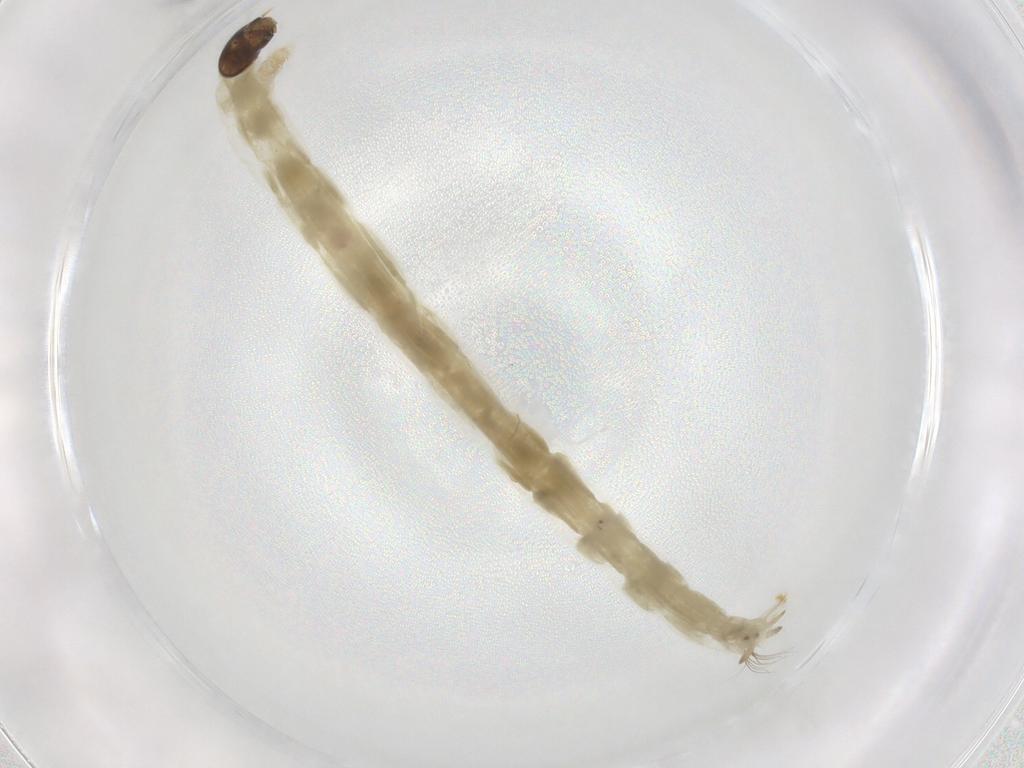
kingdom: Animalia
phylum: Arthropoda
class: Insecta
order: Diptera
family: Chironomidae
